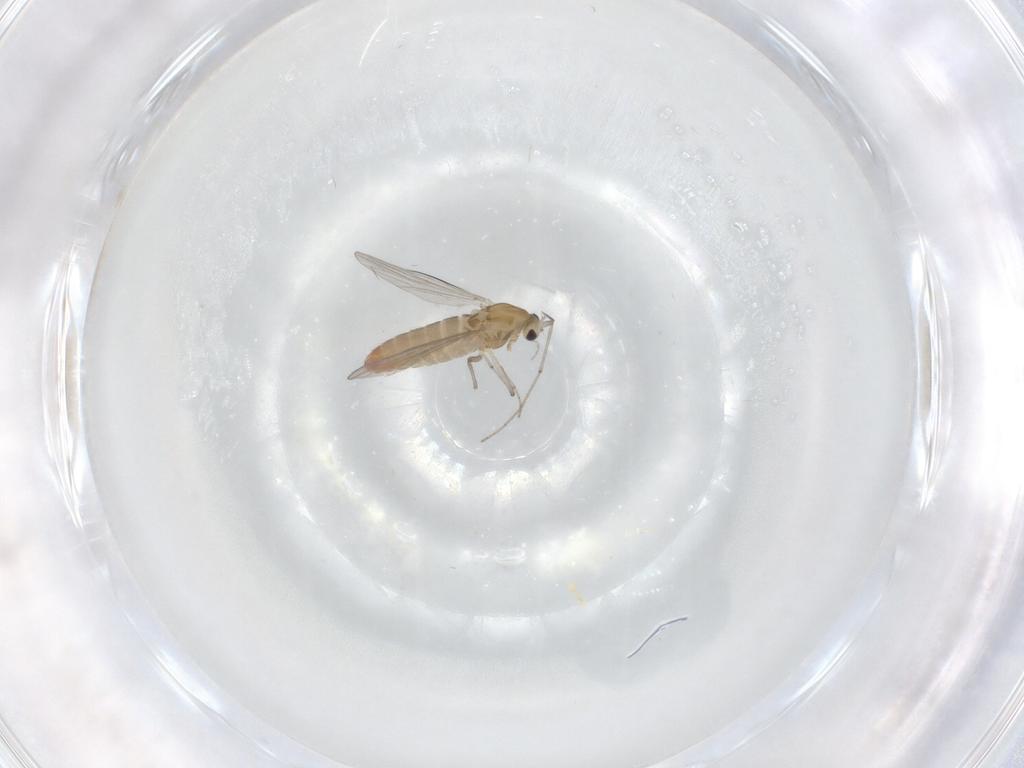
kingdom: Animalia
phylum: Arthropoda
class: Insecta
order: Diptera
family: Chironomidae
